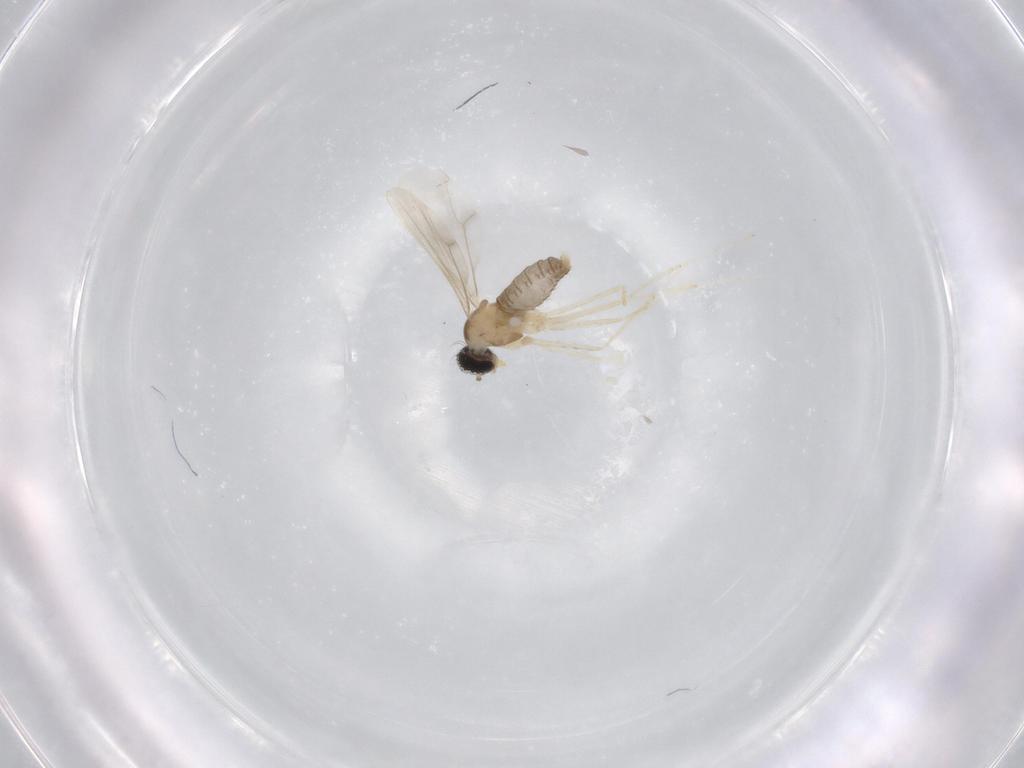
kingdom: Animalia
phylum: Arthropoda
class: Insecta
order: Diptera
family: Cecidomyiidae
